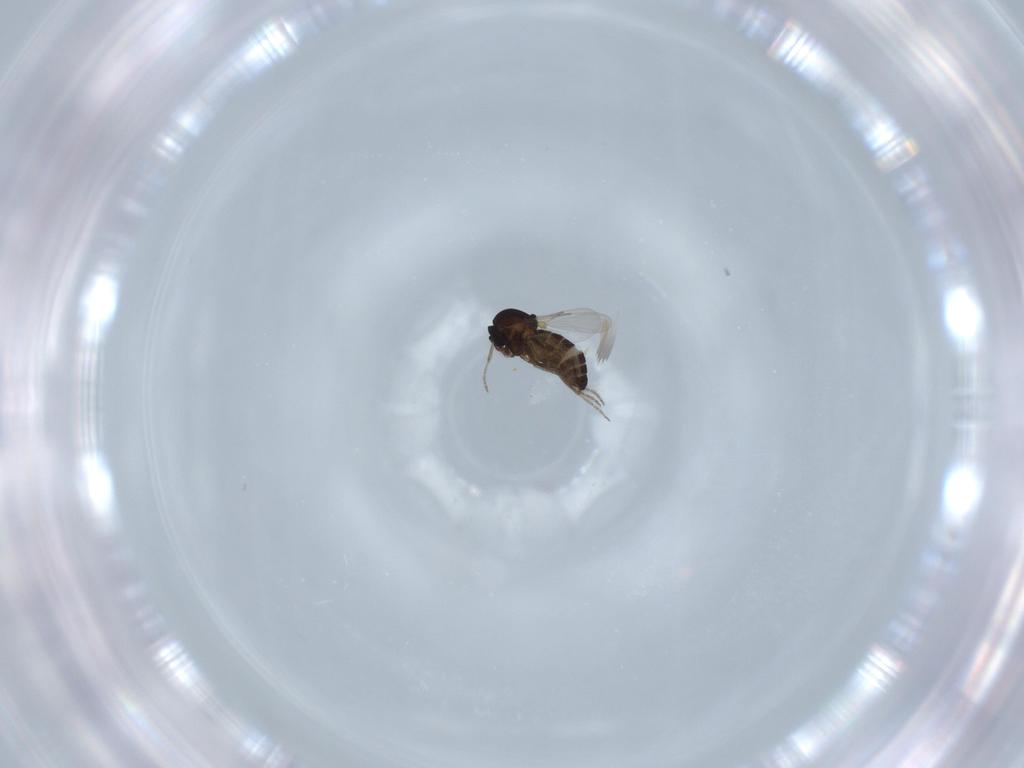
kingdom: Animalia
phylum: Arthropoda
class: Insecta
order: Diptera
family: Ceratopogonidae
